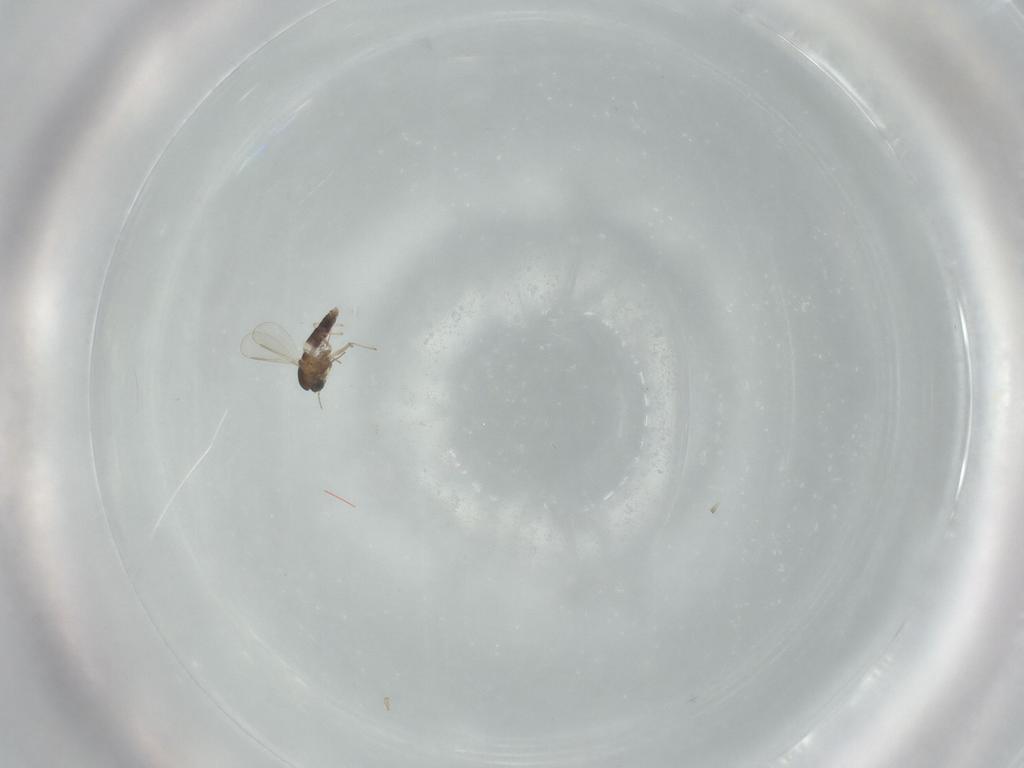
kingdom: Animalia
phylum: Arthropoda
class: Insecta
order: Diptera
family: Chironomidae
